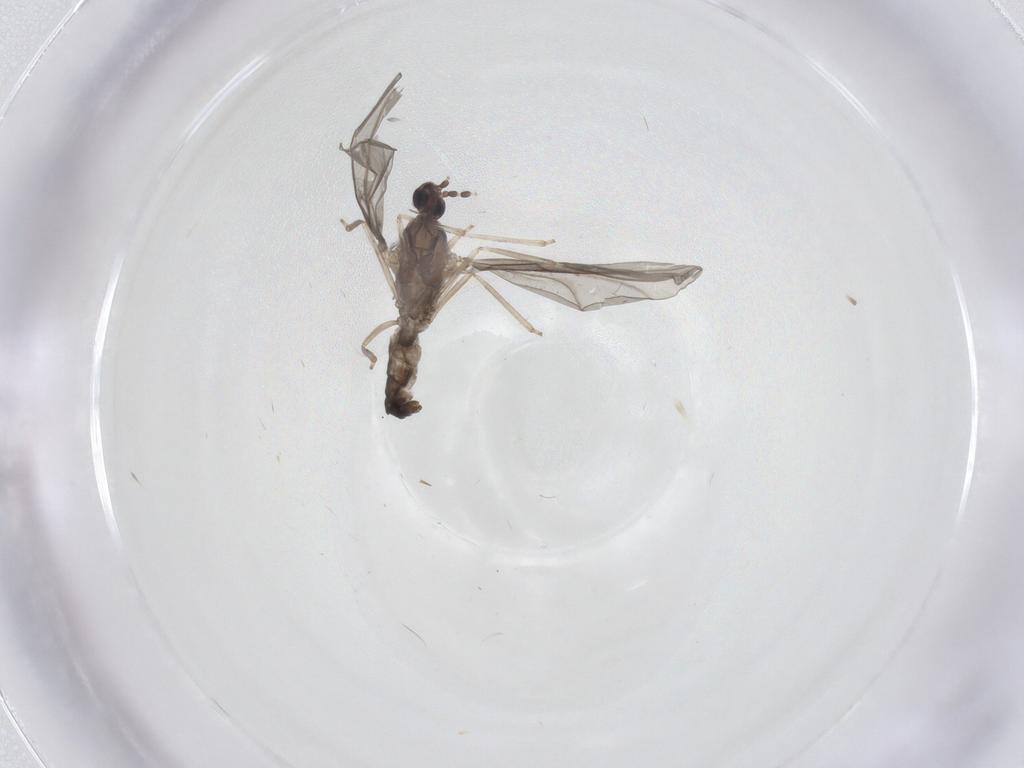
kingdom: Animalia
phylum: Arthropoda
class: Insecta
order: Diptera
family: Cecidomyiidae
